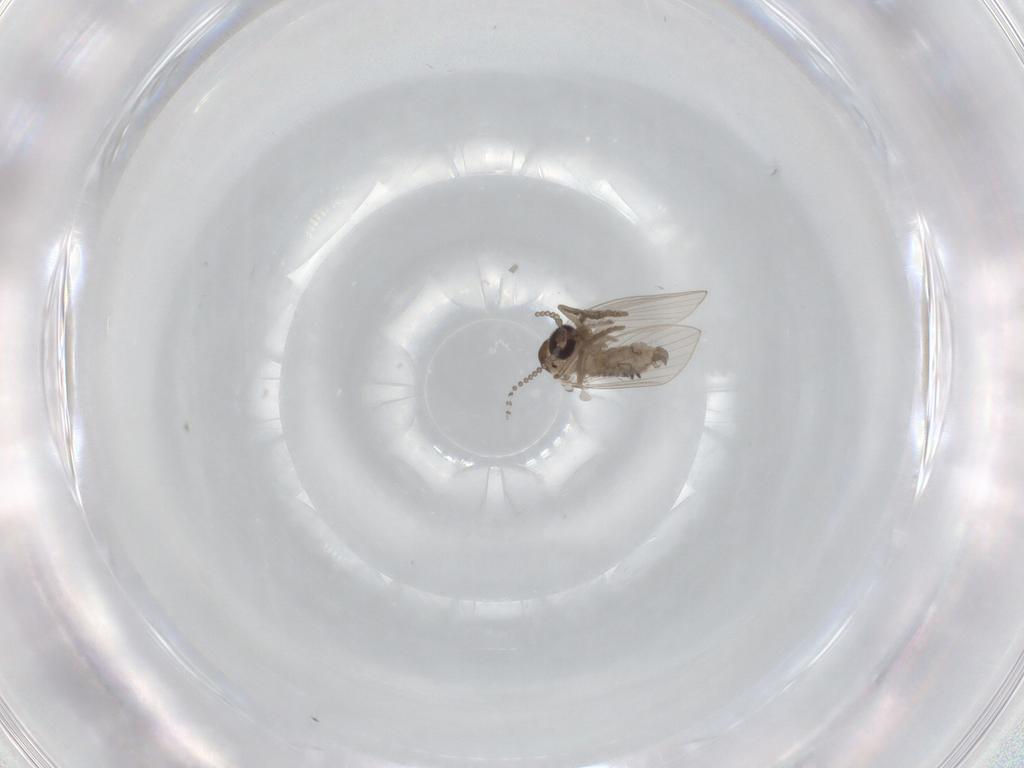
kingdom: Animalia
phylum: Arthropoda
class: Insecta
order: Diptera
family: Psychodidae
